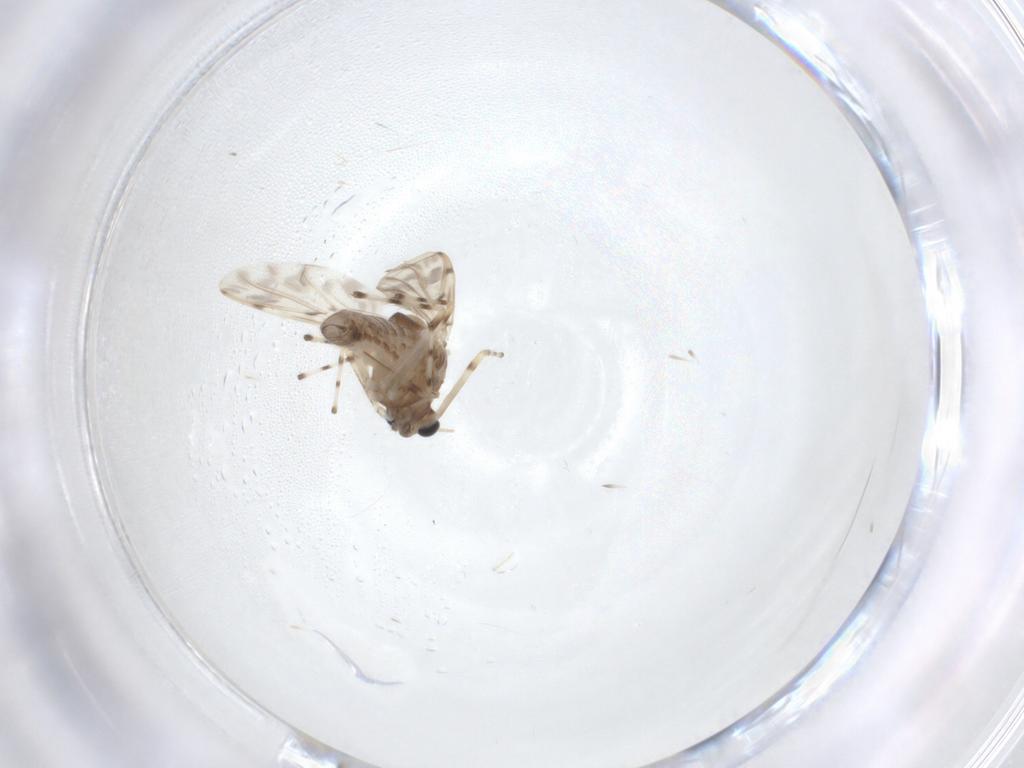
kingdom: Animalia
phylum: Arthropoda
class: Insecta
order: Diptera
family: Chironomidae
